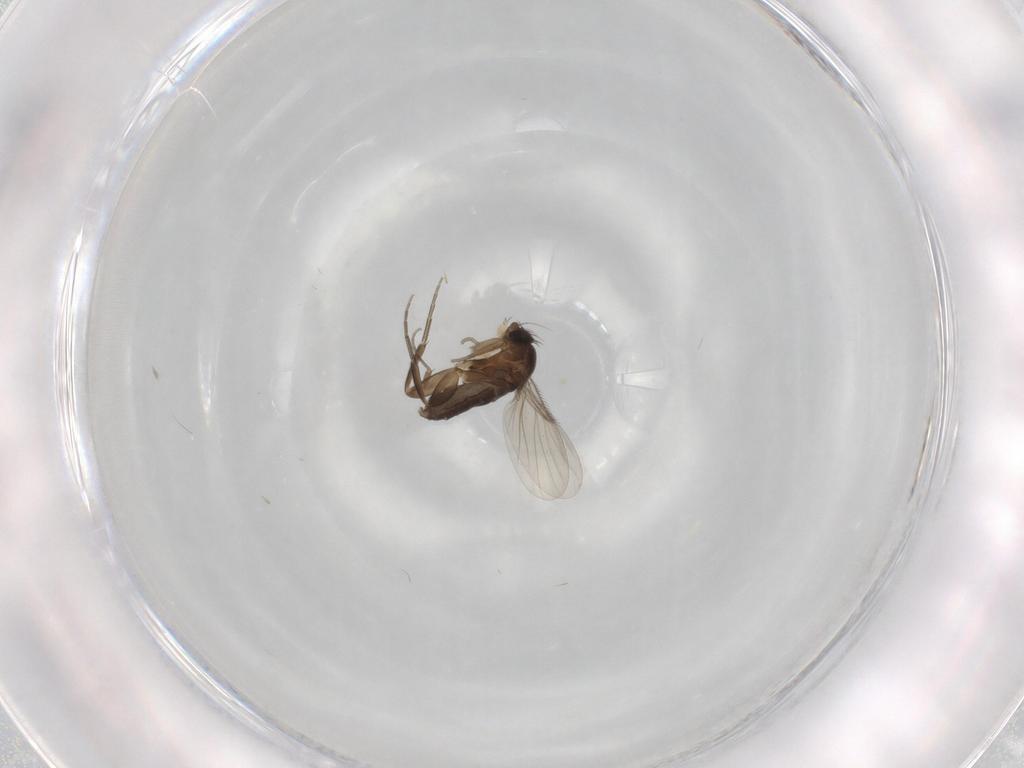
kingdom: Animalia
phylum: Arthropoda
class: Insecta
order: Diptera
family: Phoridae
